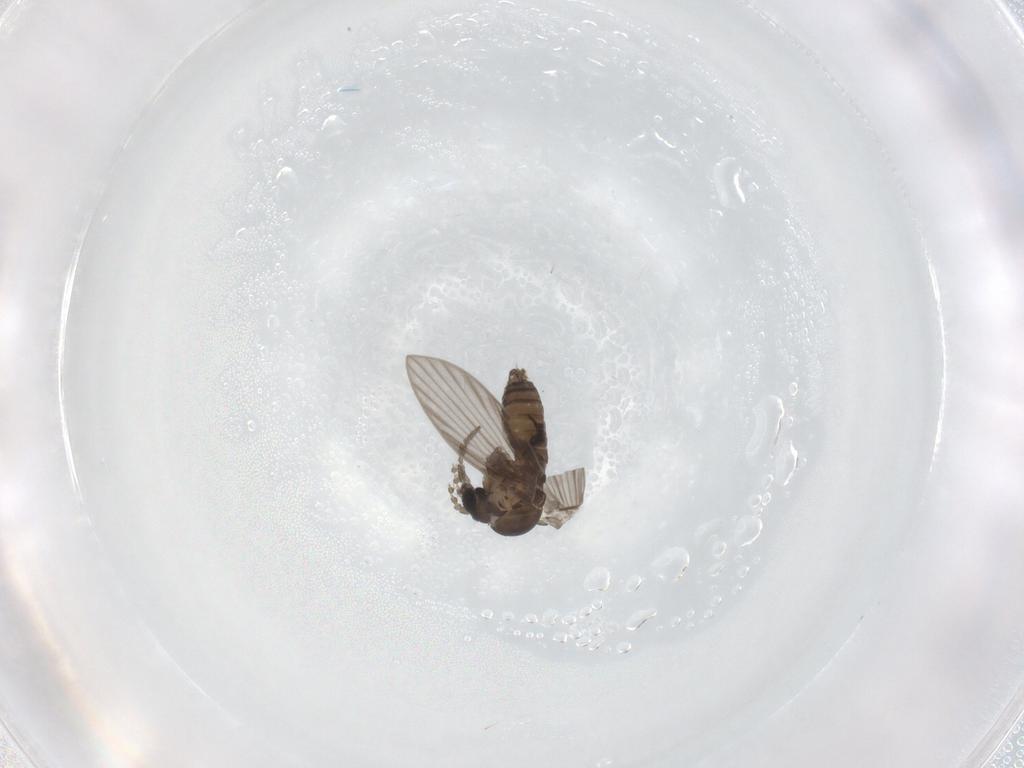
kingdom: Animalia
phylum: Arthropoda
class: Insecta
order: Diptera
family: Psychodidae
